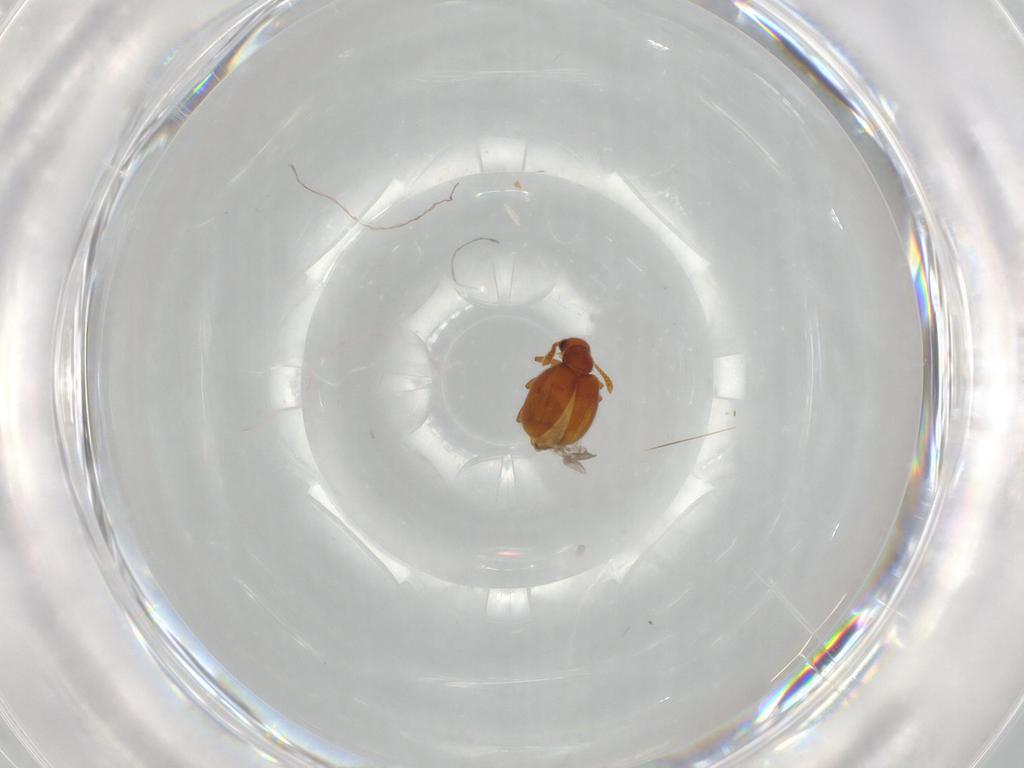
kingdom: Animalia
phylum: Arthropoda
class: Insecta
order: Coleoptera
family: Aderidae
